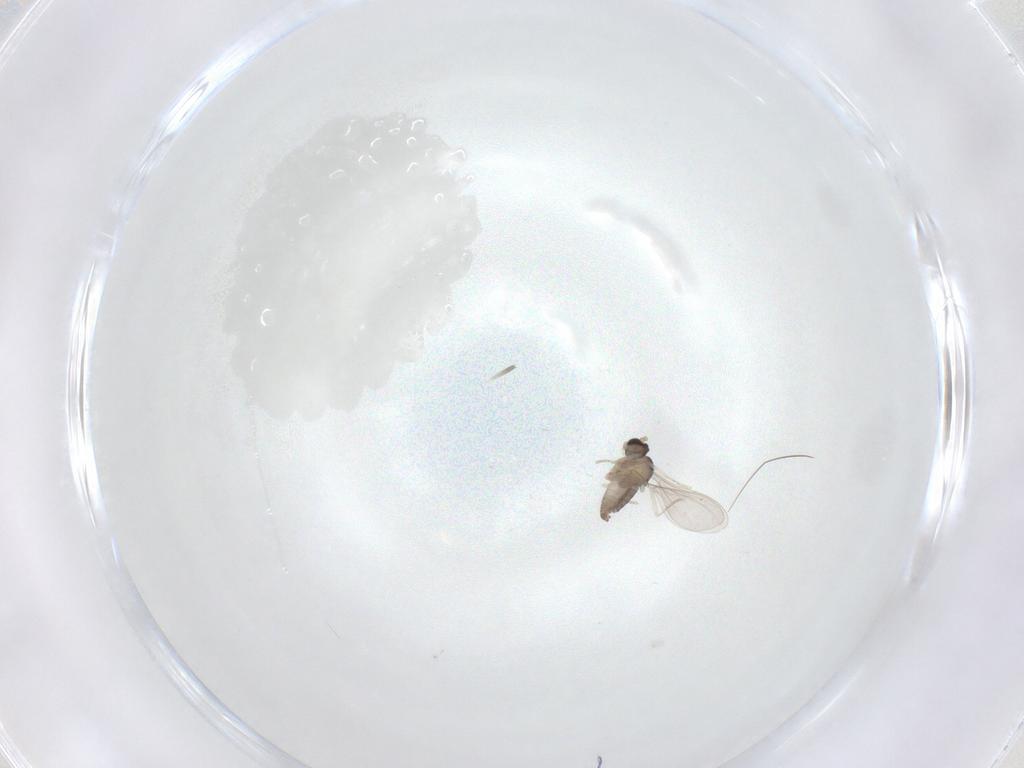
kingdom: Animalia
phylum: Arthropoda
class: Insecta
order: Diptera
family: Cecidomyiidae
